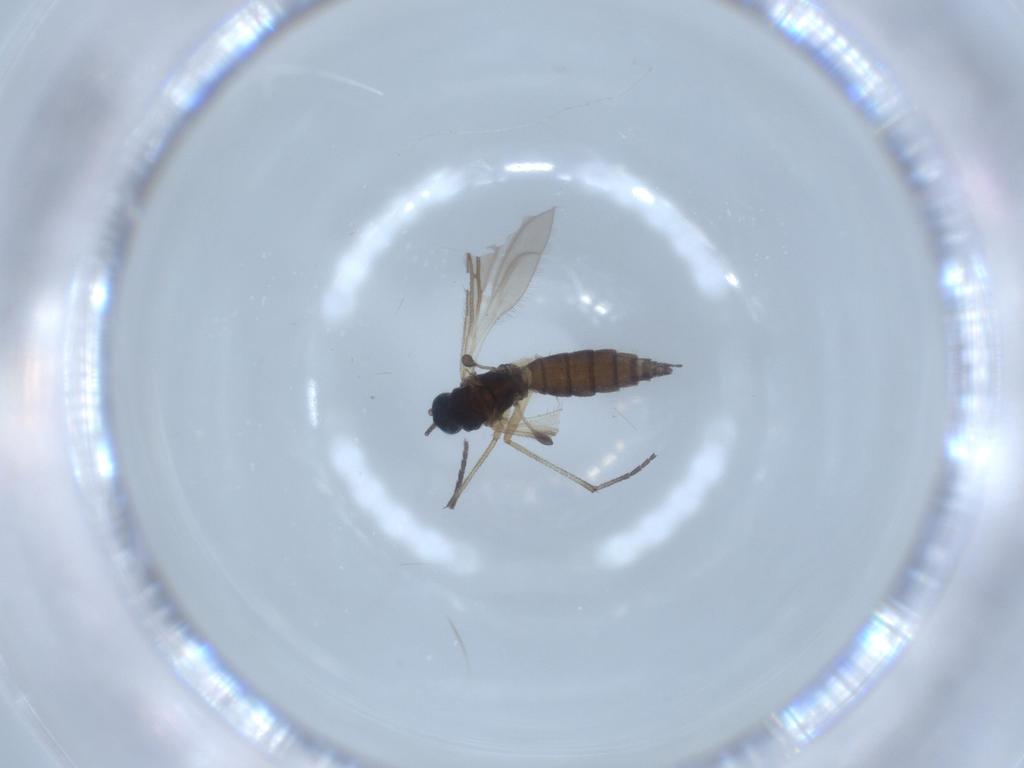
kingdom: Animalia
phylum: Arthropoda
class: Insecta
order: Diptera
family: Sciaridae
